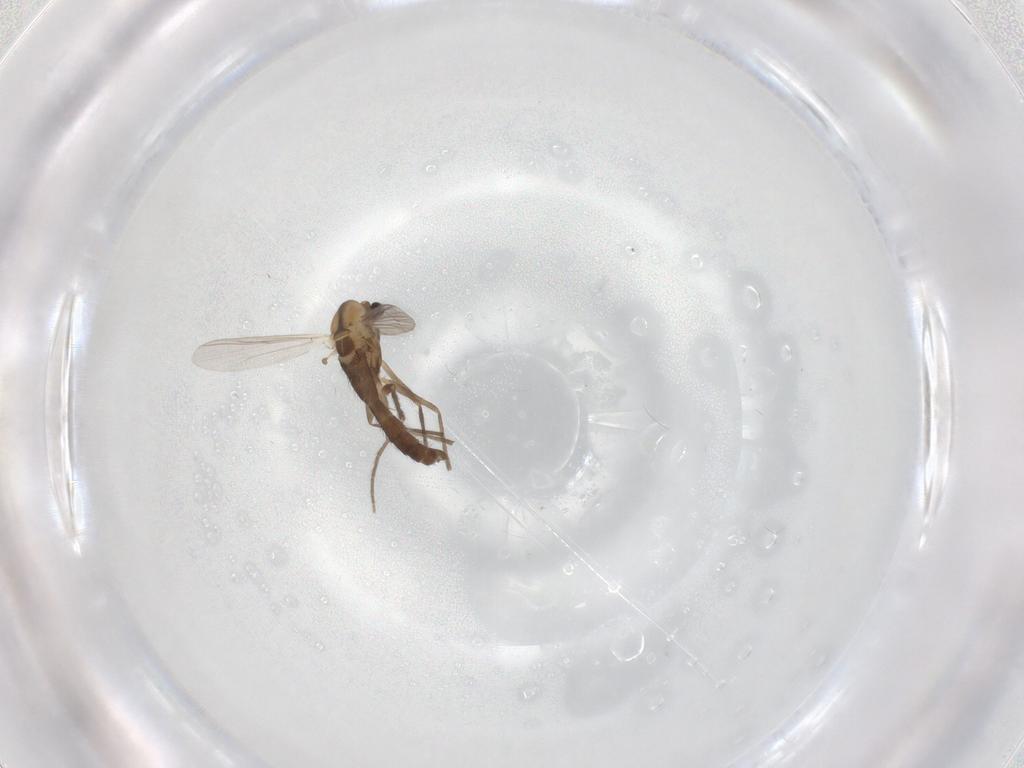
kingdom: Animalia
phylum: Arthropoda
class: Insecta
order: Diptera
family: Chironomidae
